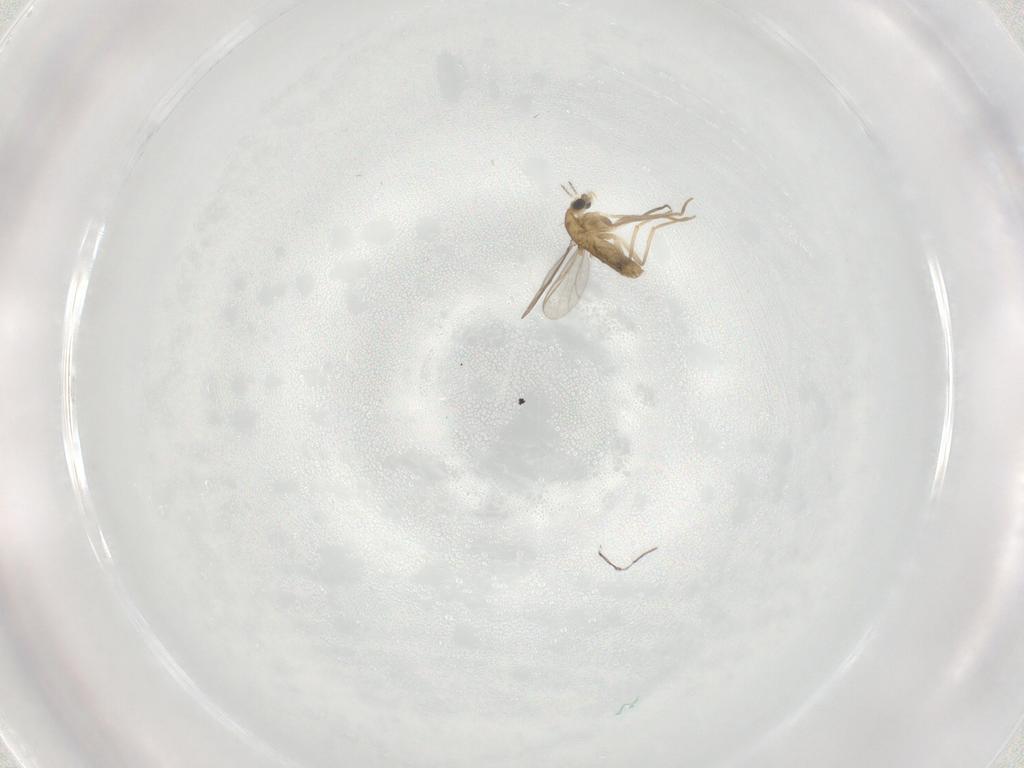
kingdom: Animalia
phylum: Arthropoda
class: Insecta
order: Diptera
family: Chironomidae
